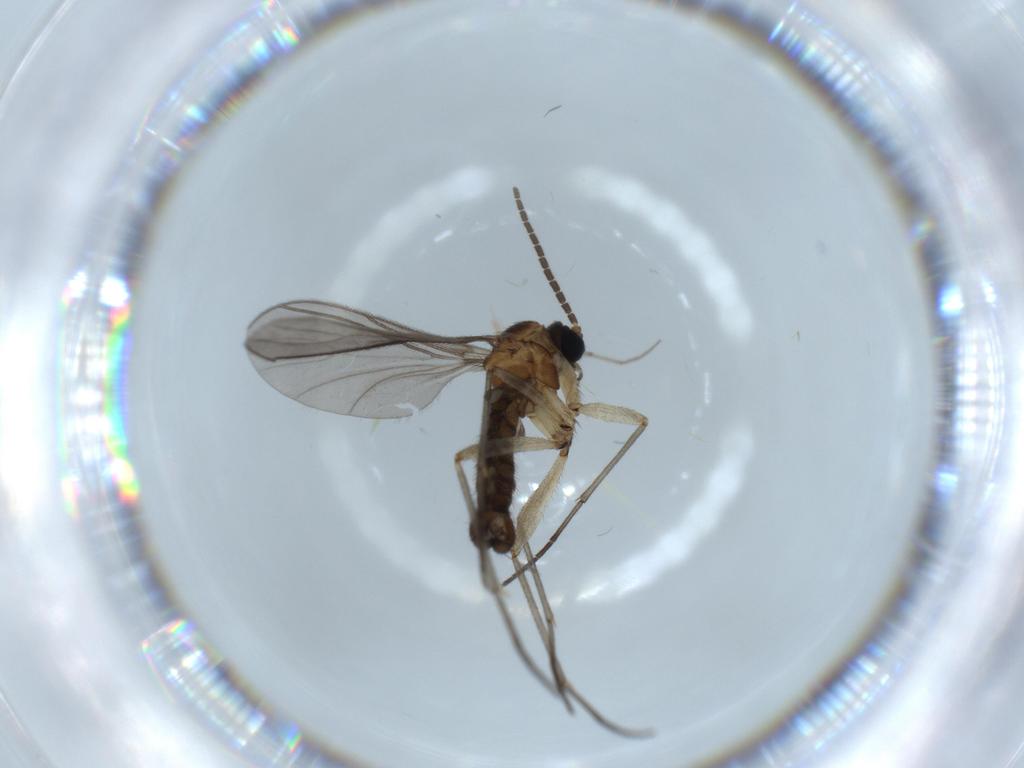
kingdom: Animalia
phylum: Arthropoda
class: Insecta
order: Diptera
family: Sciaridae
